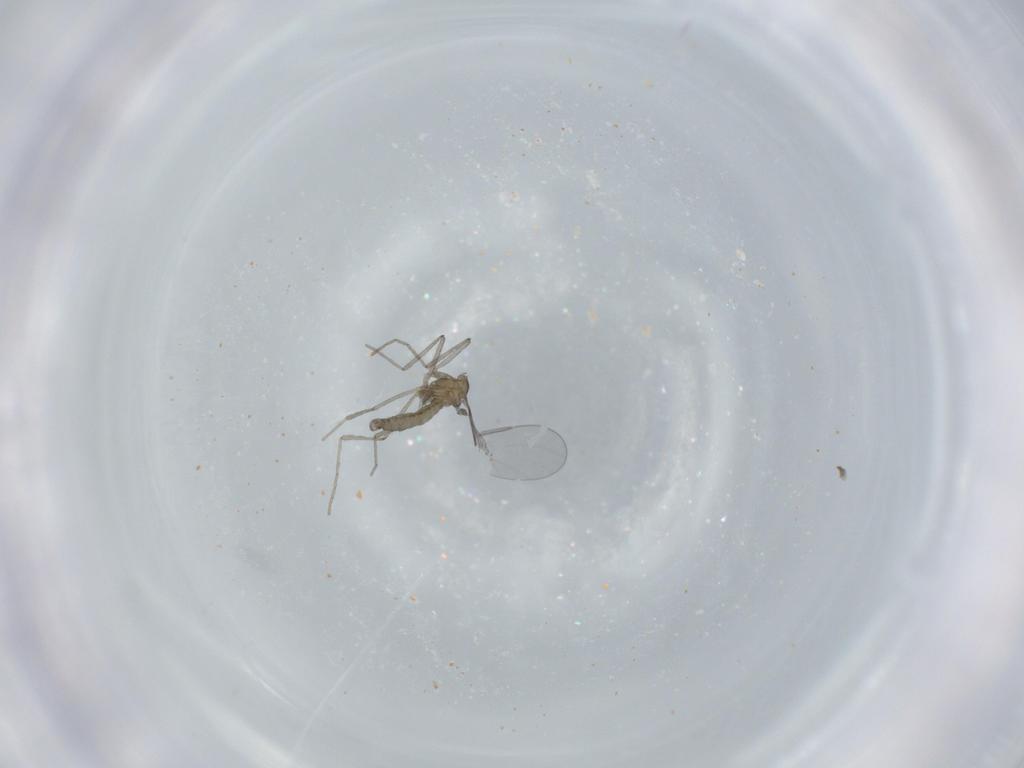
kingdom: Animalia
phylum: Arthropoda
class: Insecta
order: Diptera
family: Cecidomyiidae
